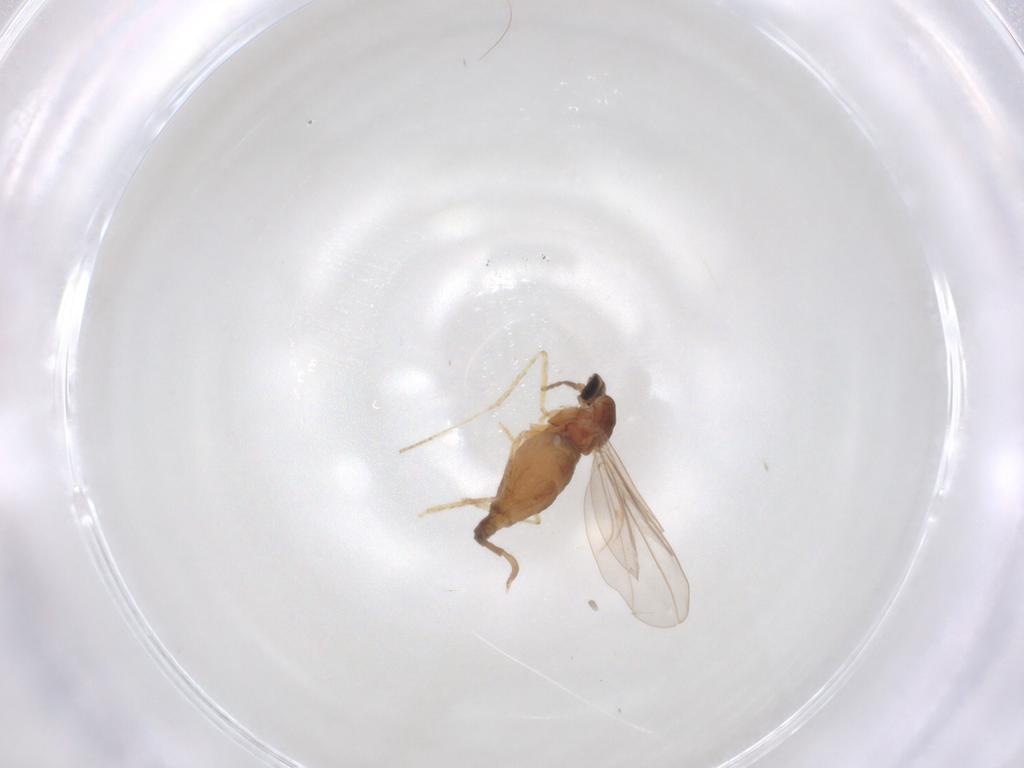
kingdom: Animalia
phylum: Arthropoda
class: Insecta
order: Diptera
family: Cecidomyiidae
